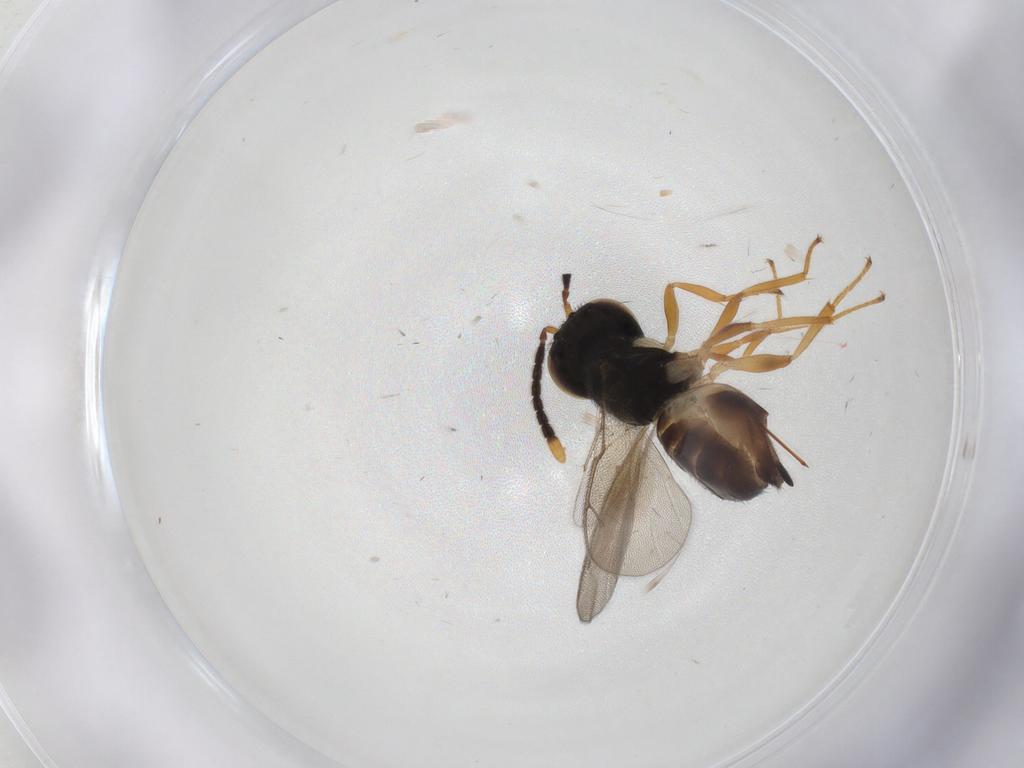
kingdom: Animalia
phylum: Arthropoda
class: Insecta
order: Hymenoptera
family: Pteromalidae
